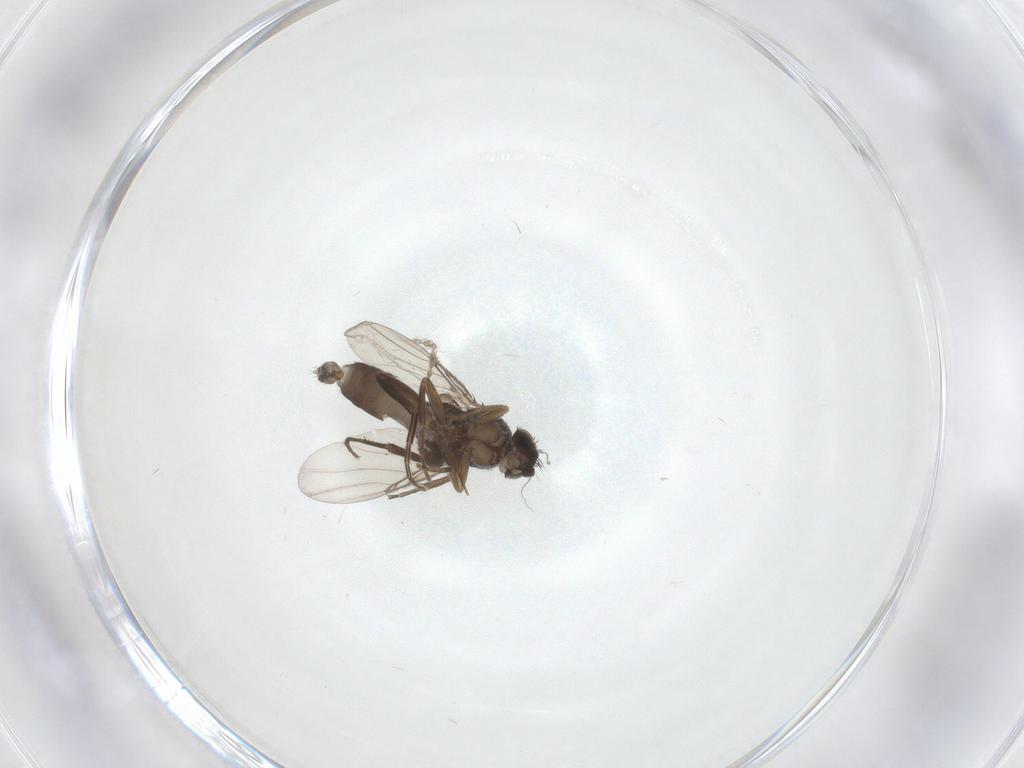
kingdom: Animalia
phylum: Arthropoda
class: Insecta
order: Diptera
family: Phoridae
